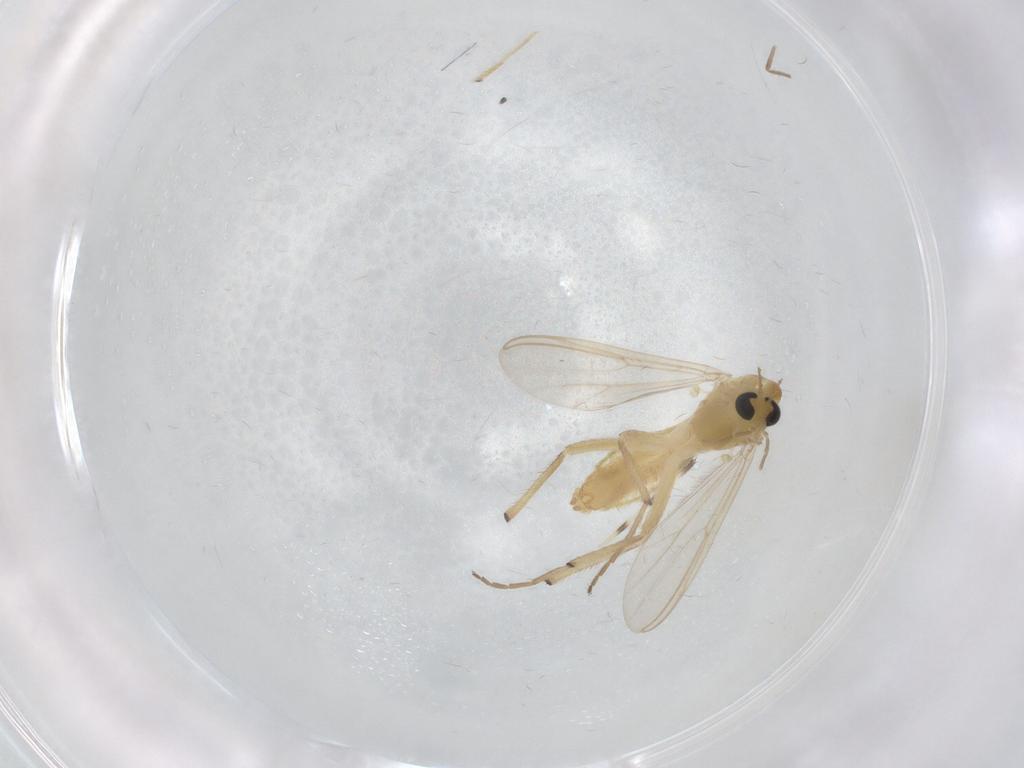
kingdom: Animalia
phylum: Arthropoda
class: Insecta
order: Diptera
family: Chironomidae
